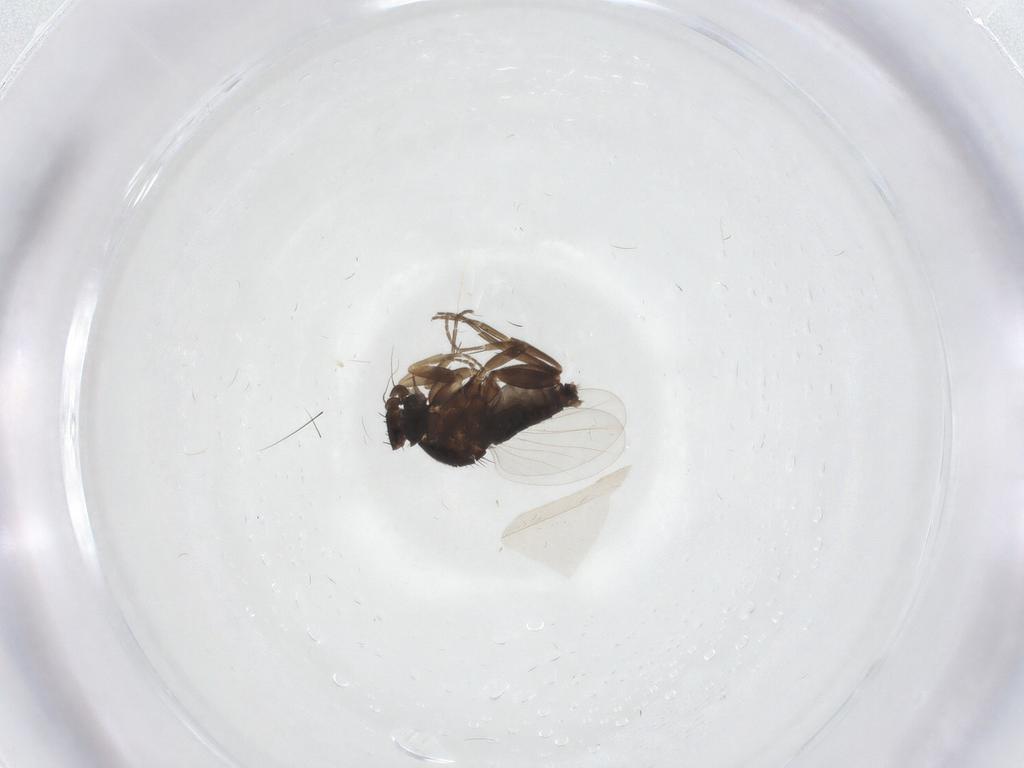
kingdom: Animalia
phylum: Arthropoda
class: Insecta
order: Diptera
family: Phoridae
